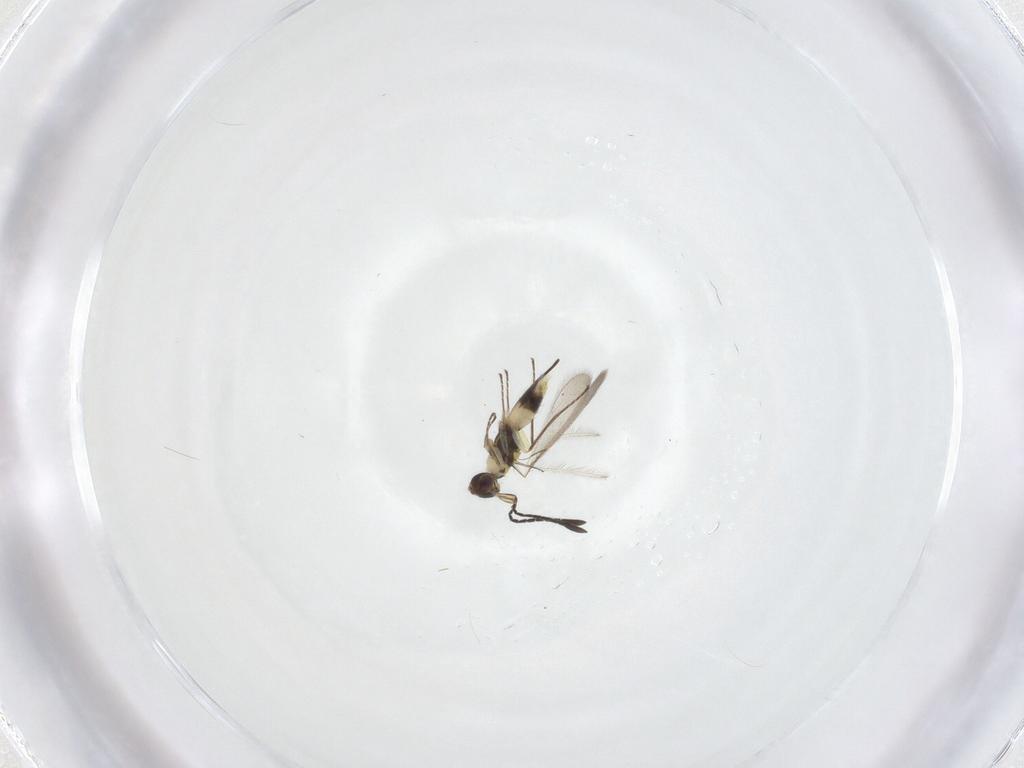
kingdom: Animalia
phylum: Arthropoda
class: Insecta
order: Hymenoptera
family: Mymaridae
